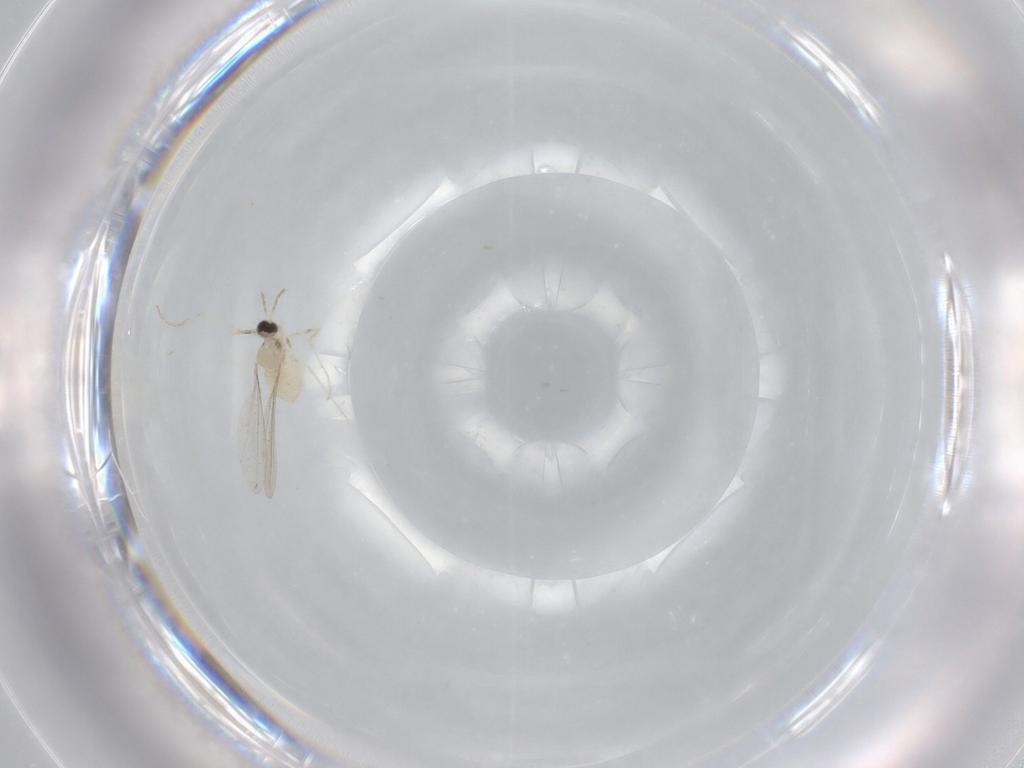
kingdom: Animalia
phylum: Arthropoda
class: Insecta
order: Diptera
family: Cecidomyiidae
